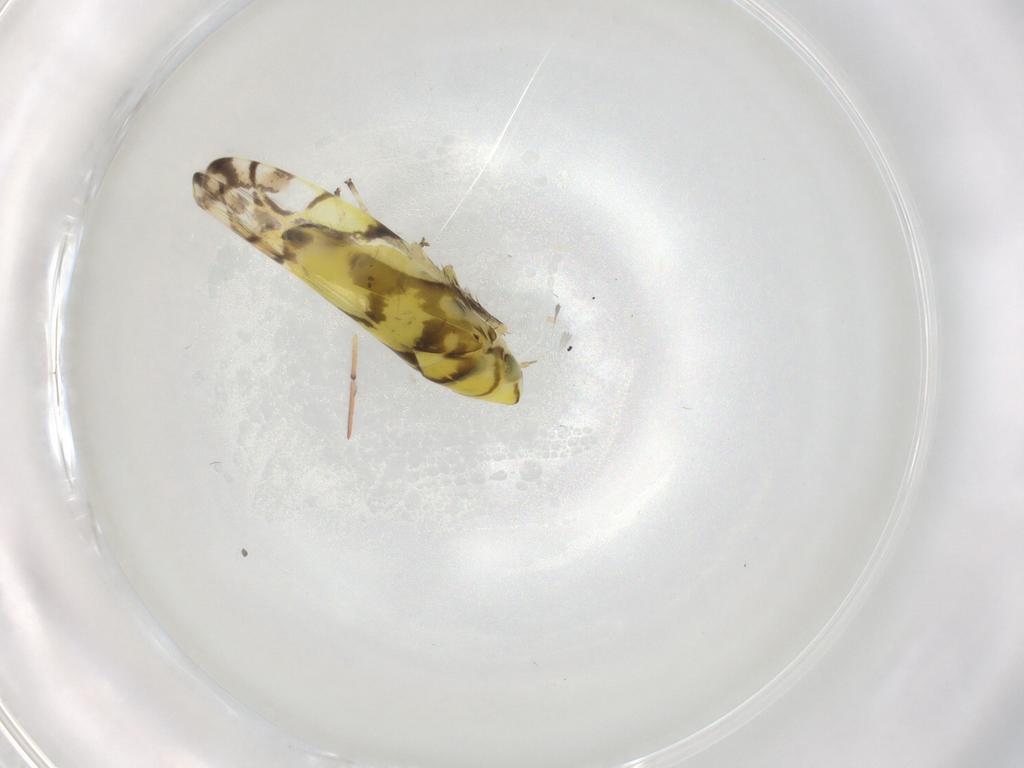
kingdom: Animalia
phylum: Arthropoda
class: Insecta
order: Hemiptera
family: Cicadellidae
